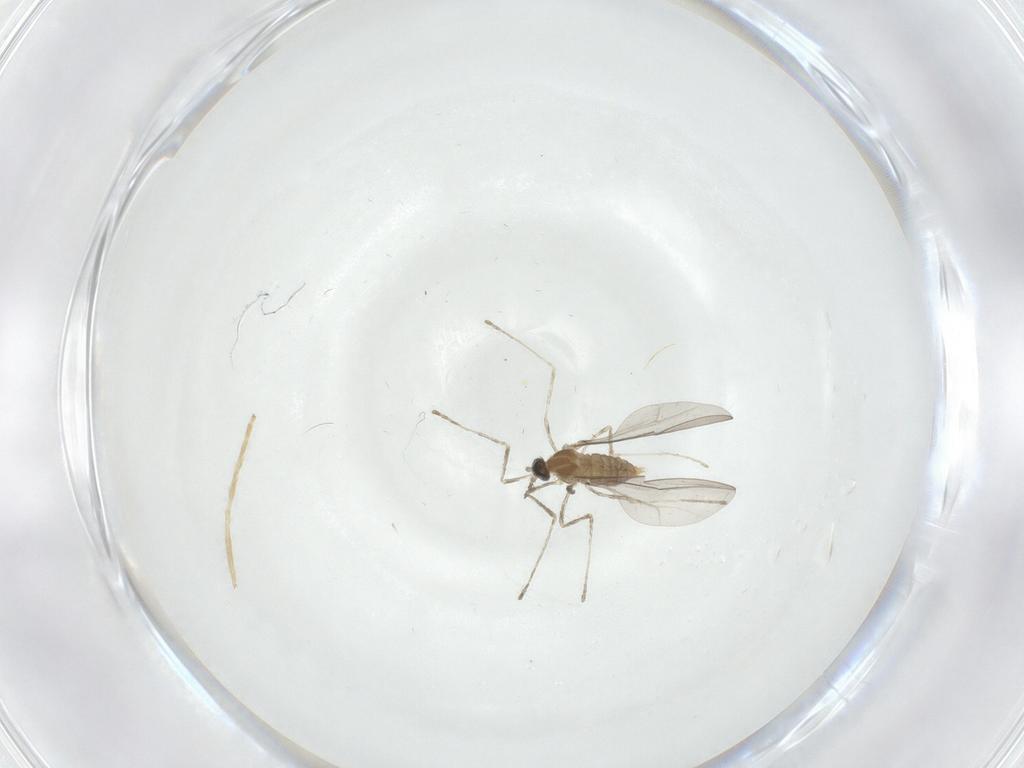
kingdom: Animalia
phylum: Arthropoda
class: Insecta
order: Diptera
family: Cecidomyiidae
